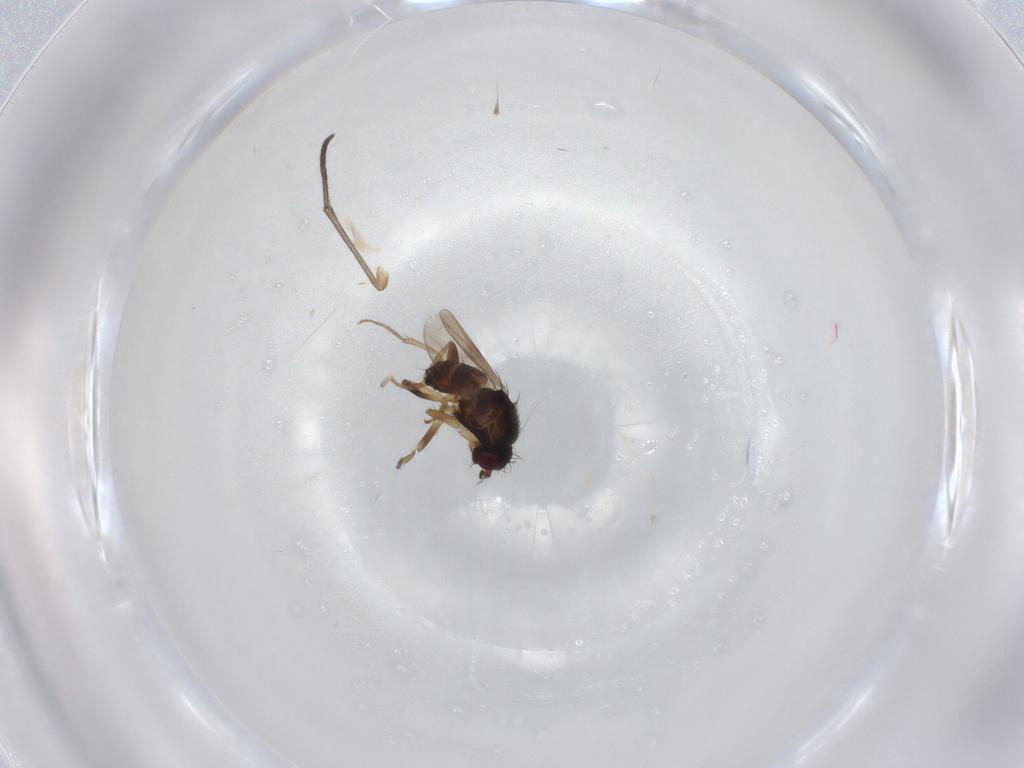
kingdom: Animalia
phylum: Arthropoda
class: Insecta
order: Diptera
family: Sphaeroceridae
